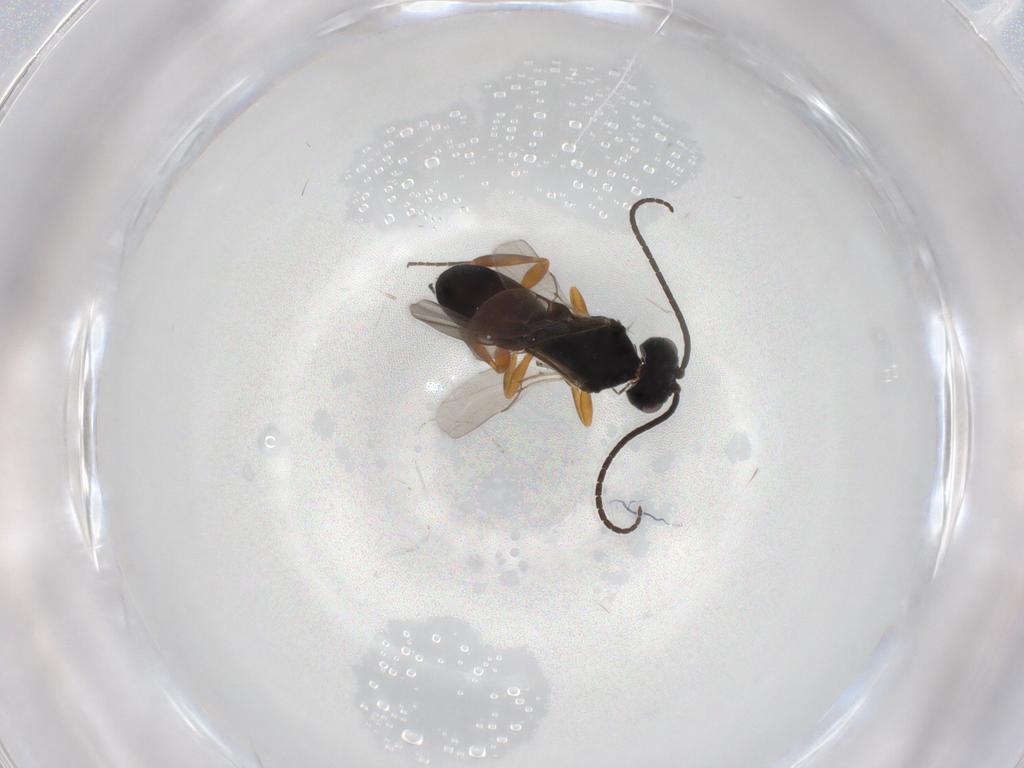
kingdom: Animalia
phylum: Arthropoda
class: Insecta
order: Hymenoptera
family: Braconidae
